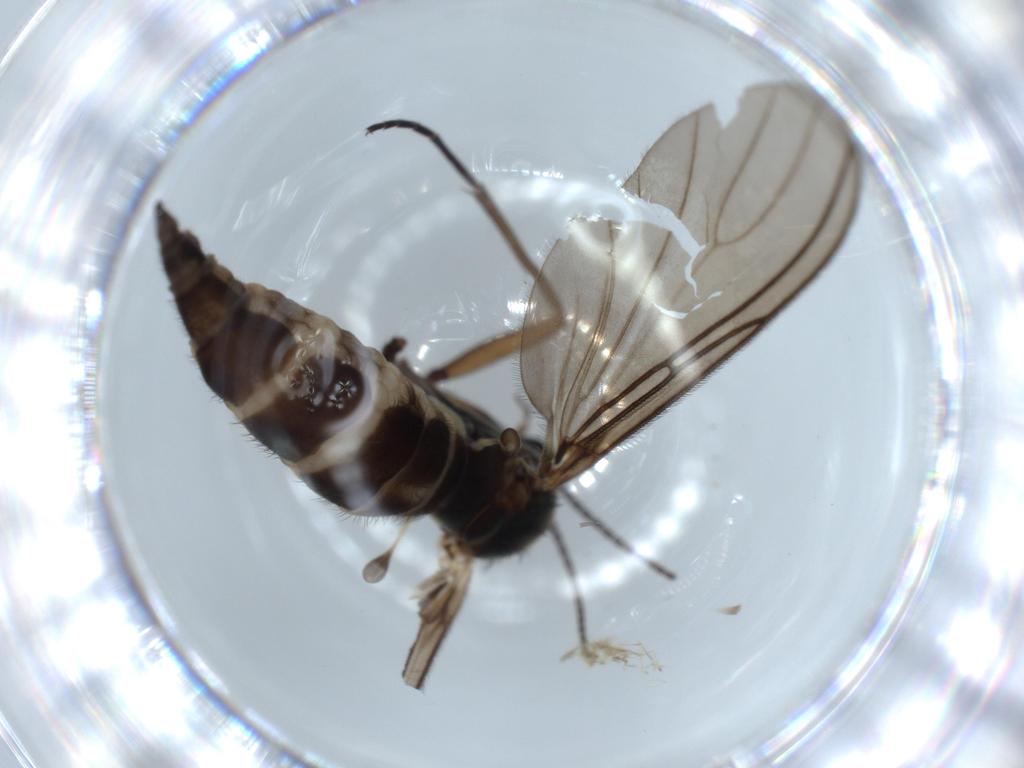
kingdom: Animalia
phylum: Arthropoda
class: Insecta
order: Diptera
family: Sciaridae
